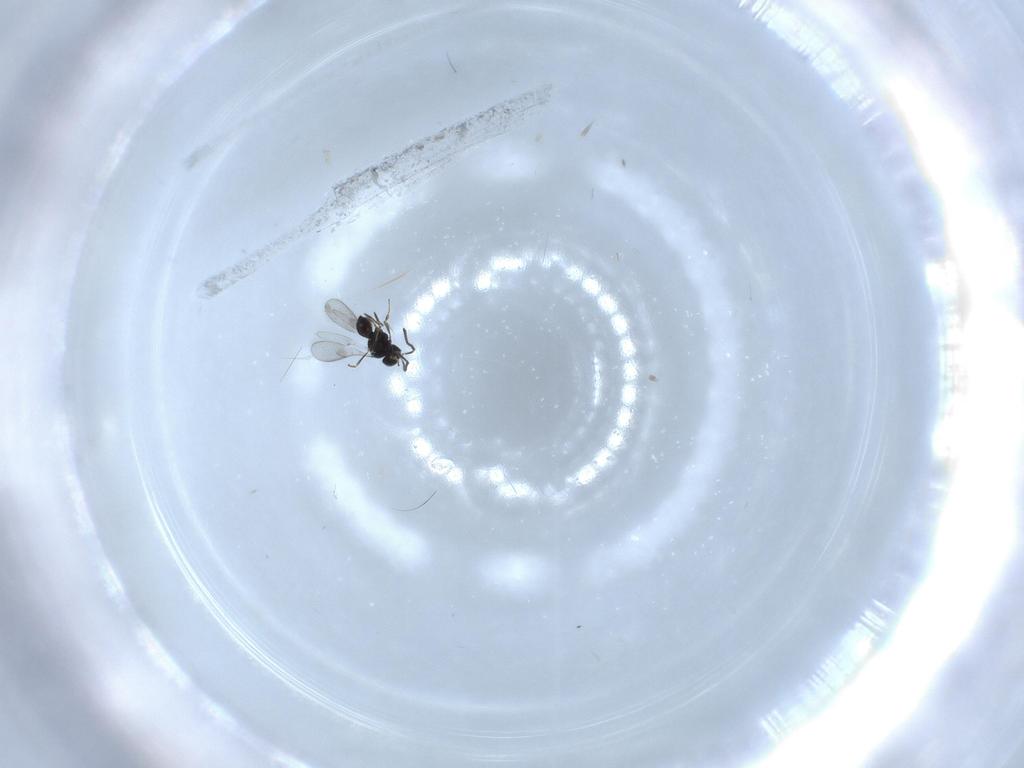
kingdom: Animalia
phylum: Arthropoda
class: Insecta
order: Hymenoptera
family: Scelionidae
